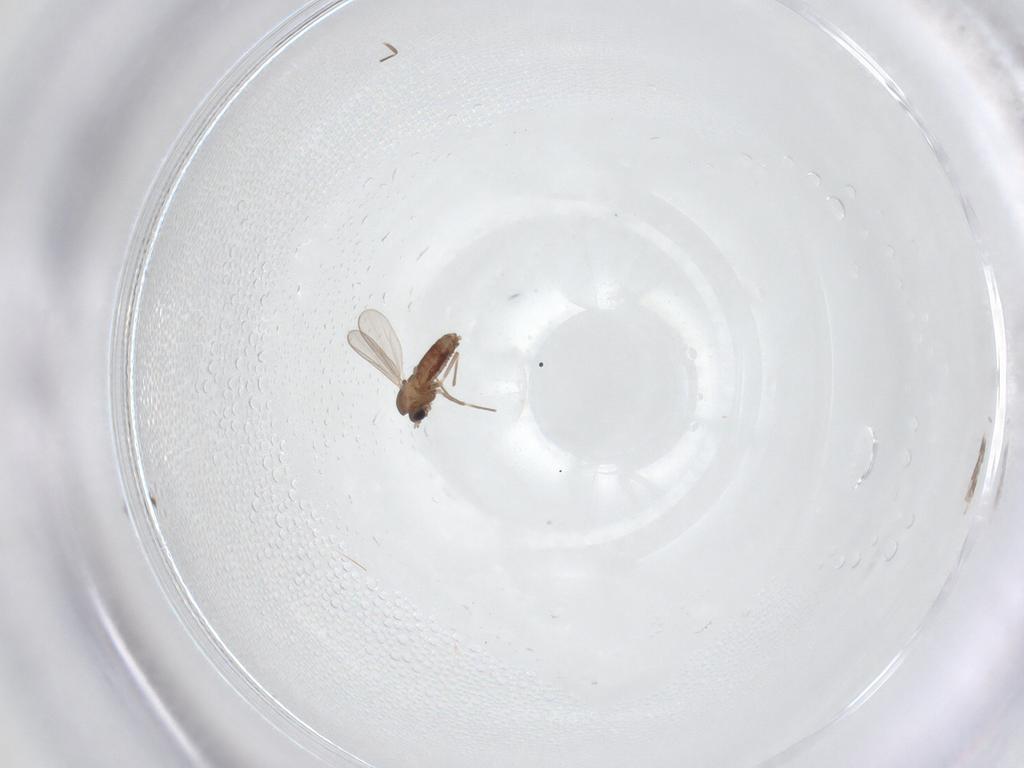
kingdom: Animalia
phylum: Arthropoda
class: Insecta
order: Diptera
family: Chironomidae
